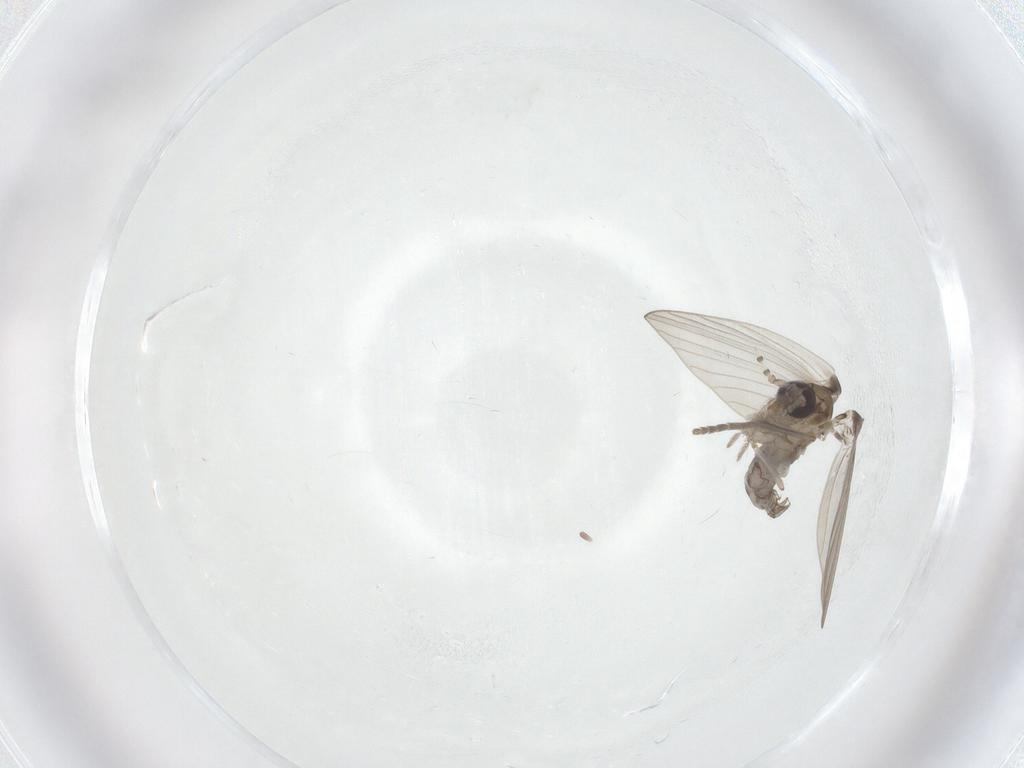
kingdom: Animalia
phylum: Arthropoda
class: Insecta
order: Diptera
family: Psychodidae
